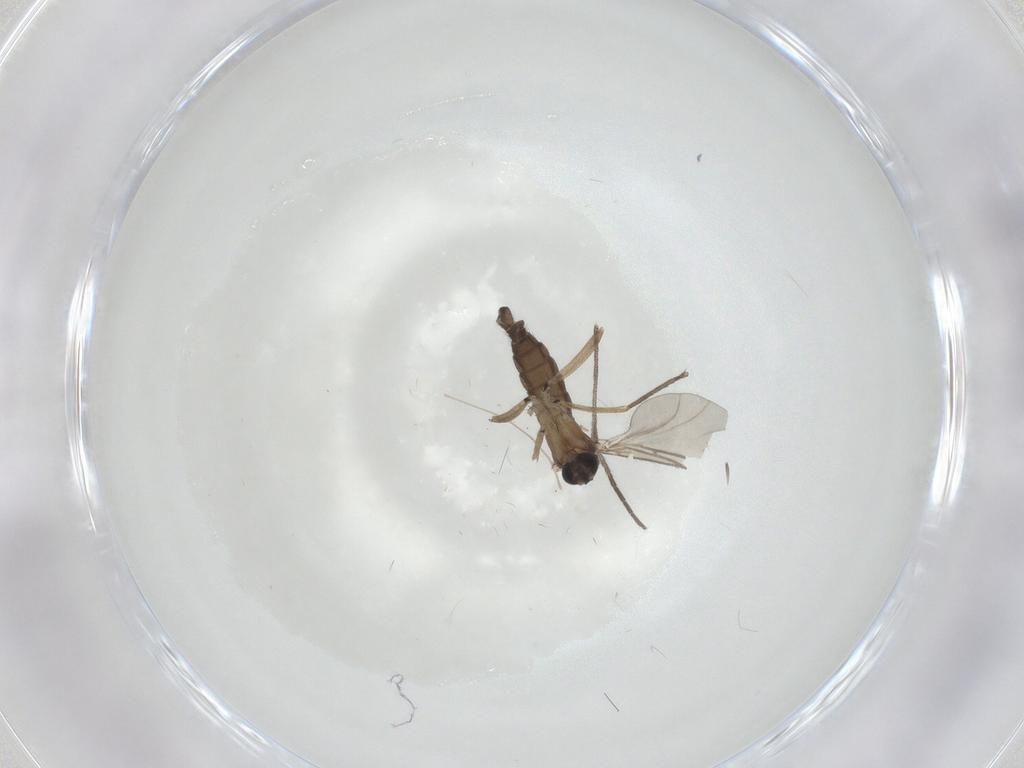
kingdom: Animalia
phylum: Arthropoda
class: Insecta
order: Diptera
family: Sciaridae
